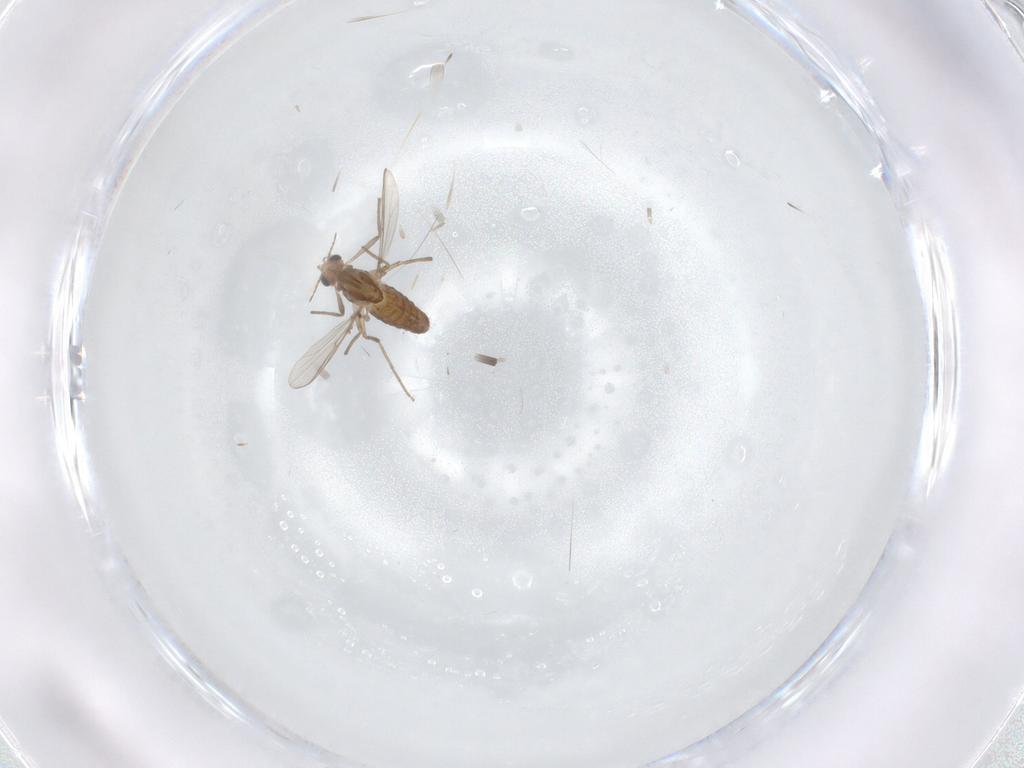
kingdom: Animalia
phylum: Arthropoda
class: Insecta
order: Diptera
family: Chironomidae
